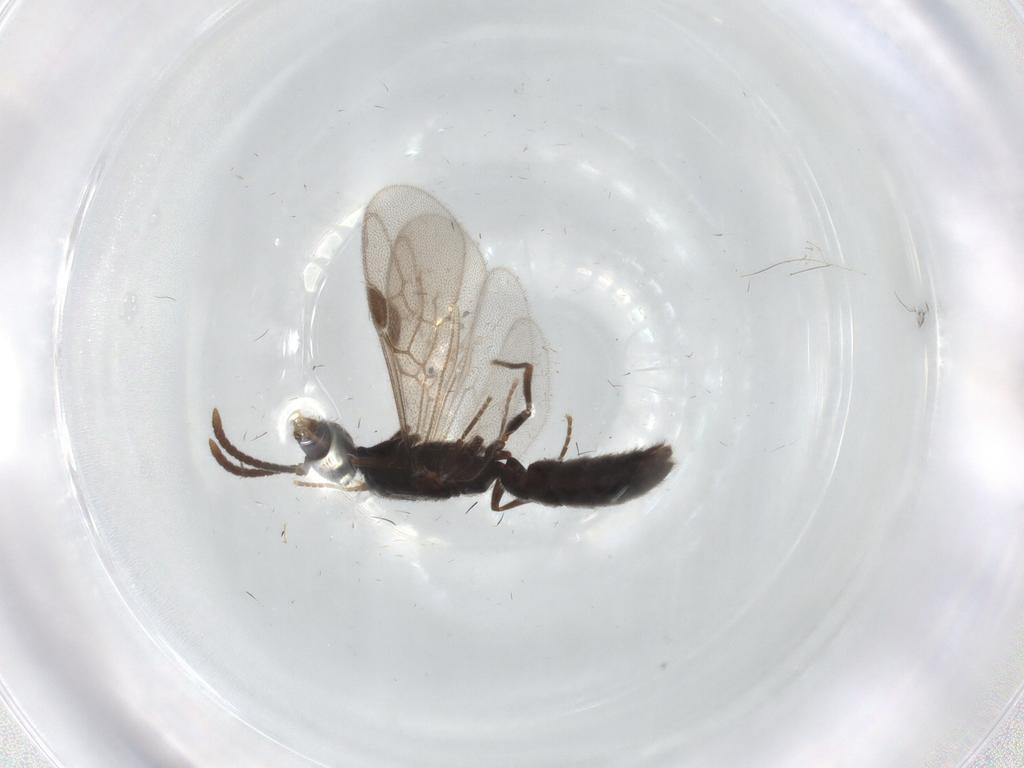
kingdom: Animalia
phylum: Arthropoda
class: Insecta
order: Hymenoptera
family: Formicidae
